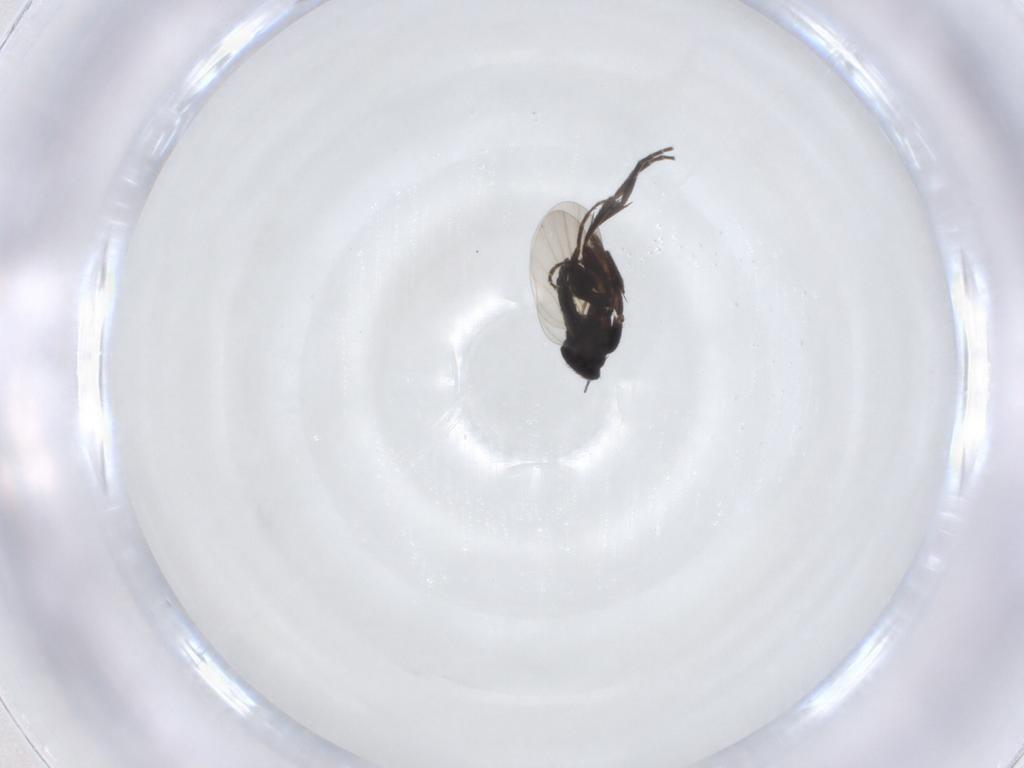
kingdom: Animalia
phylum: Arthropoda
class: Insecta
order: Diptera
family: Phoridae
